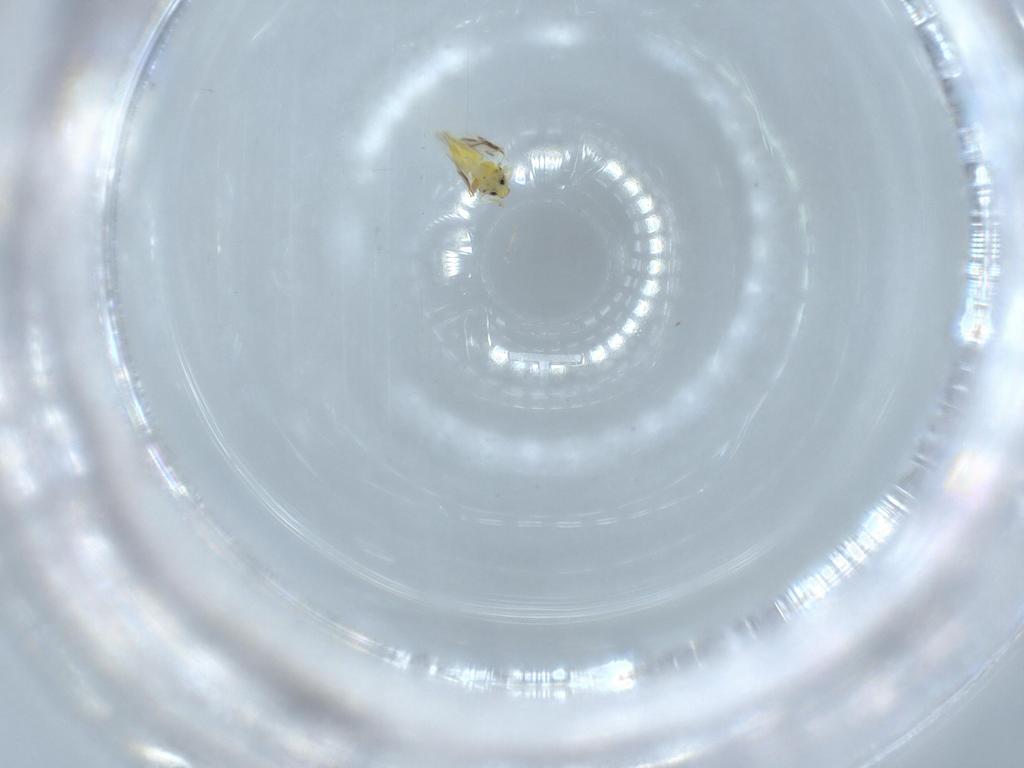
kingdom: Animalia
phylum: Arthropoda
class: Insecta
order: Hemiptera
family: Aleyrodidae
